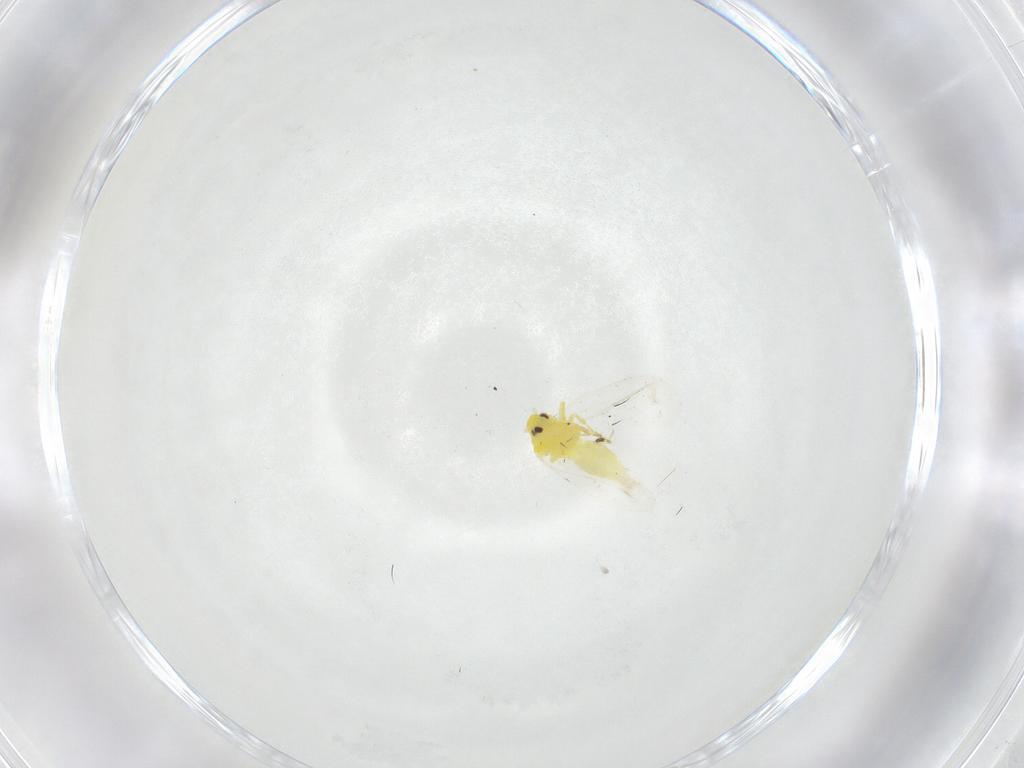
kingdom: Animalia
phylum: Arthropoda
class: Insecta
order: Hemiptera
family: Aleyrodidae
